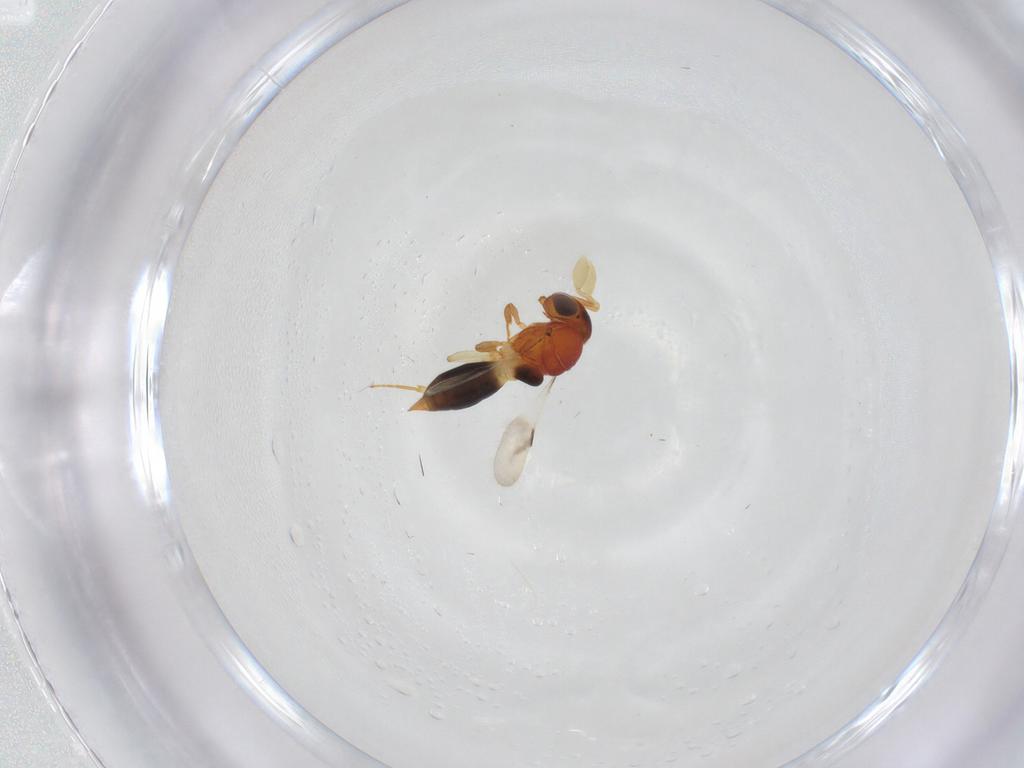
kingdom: Animalia
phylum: Arthropoda
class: Insecta
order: Hymenoptera
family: Scelionidae
